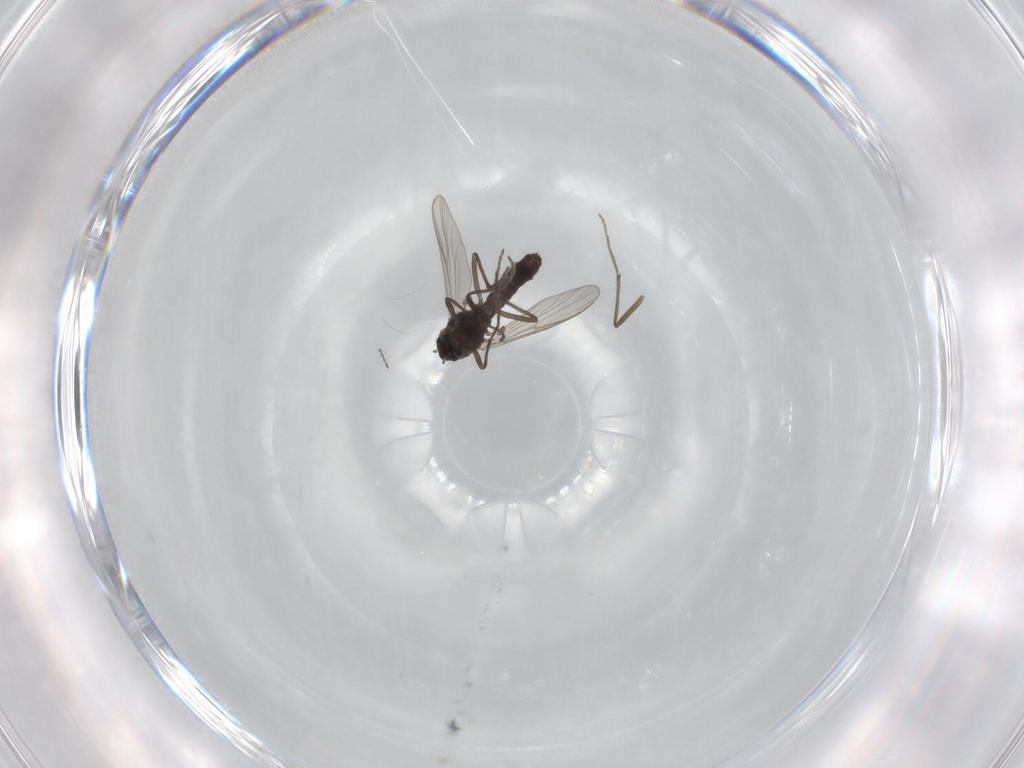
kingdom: Animalia
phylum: Arthropoda
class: Insecta
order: Diptera
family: Chironomidae
